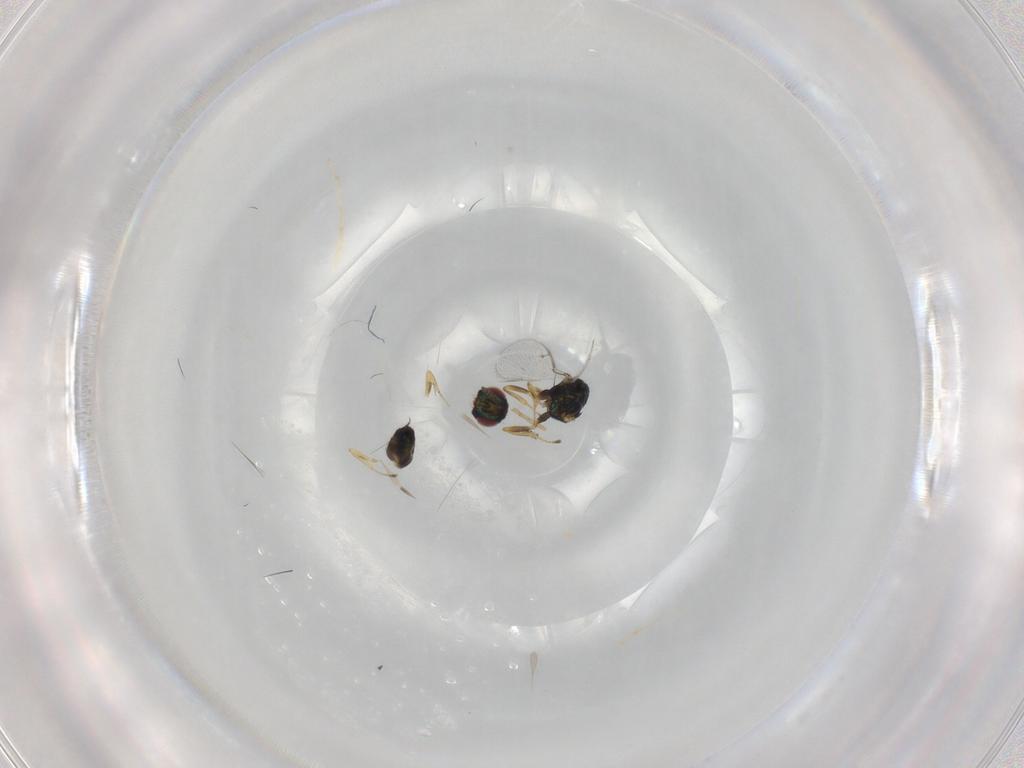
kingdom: Animalia
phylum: Arthropoda
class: Insecta
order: Hymenoptera
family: Eulophidae
